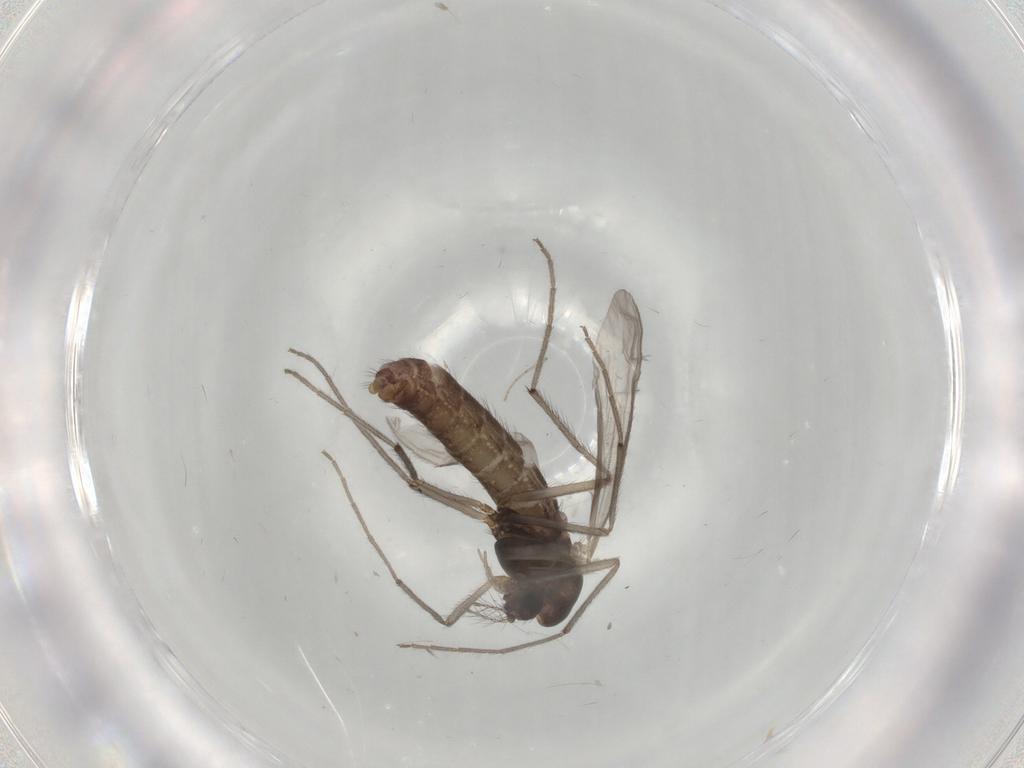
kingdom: Animalia
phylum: Arthropoda
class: Insecta
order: Diptera
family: Chironomidae
